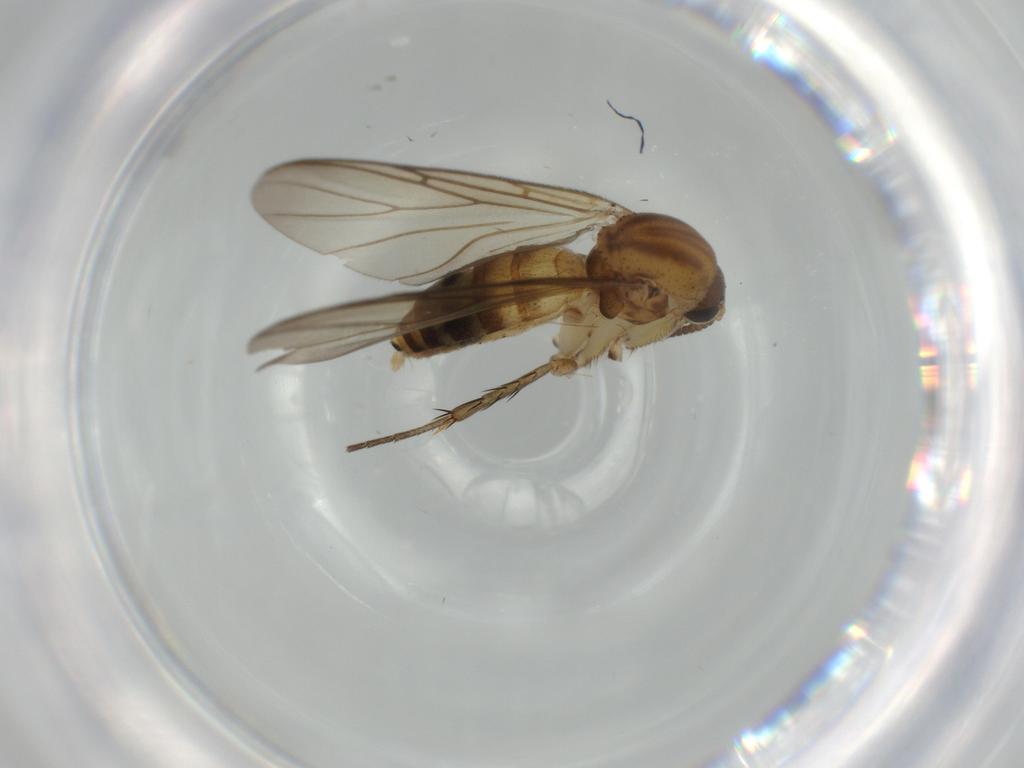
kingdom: Animalia
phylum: Arthropoda
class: Insecta
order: Diptera
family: Mycetophilidae
